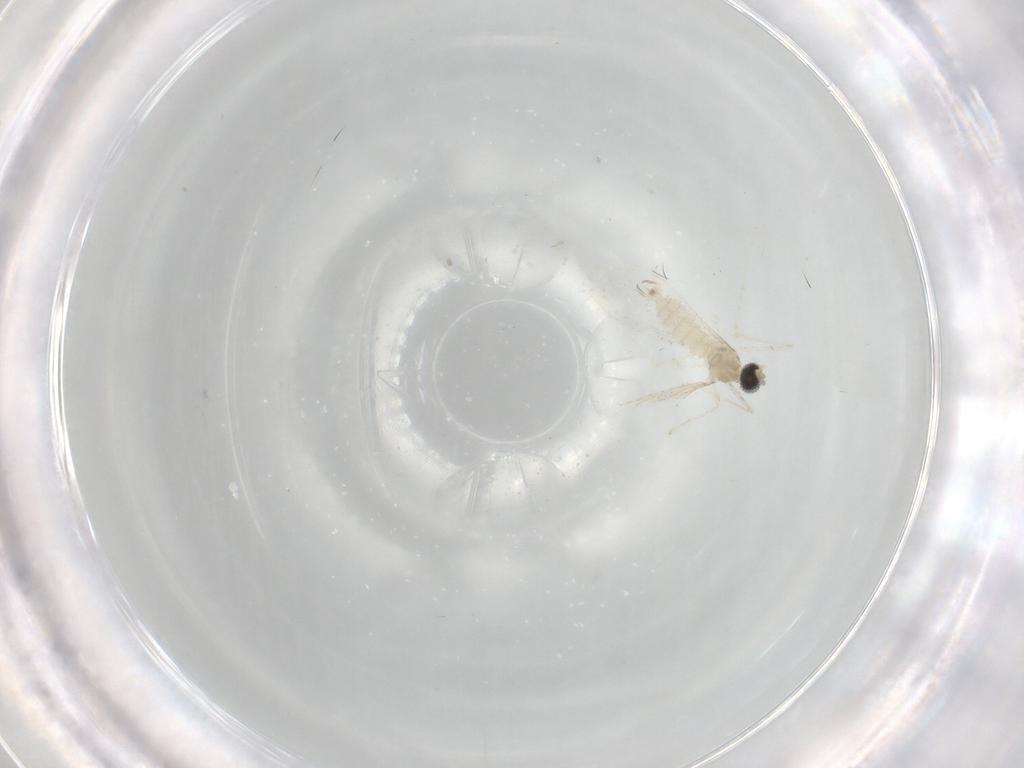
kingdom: Animalia
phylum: Arthropoda
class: Insecta
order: Diptera
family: Cecidomyiidae
